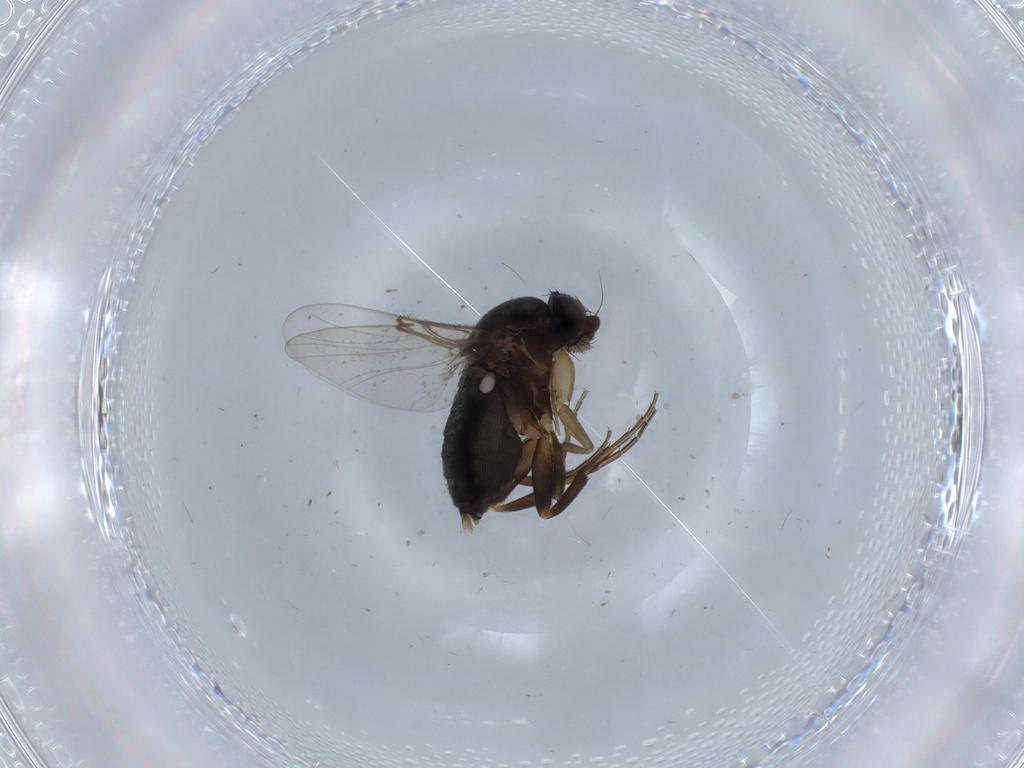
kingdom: Animalia
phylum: Arthropoda
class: Insecta
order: Diptera
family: Phoridae
